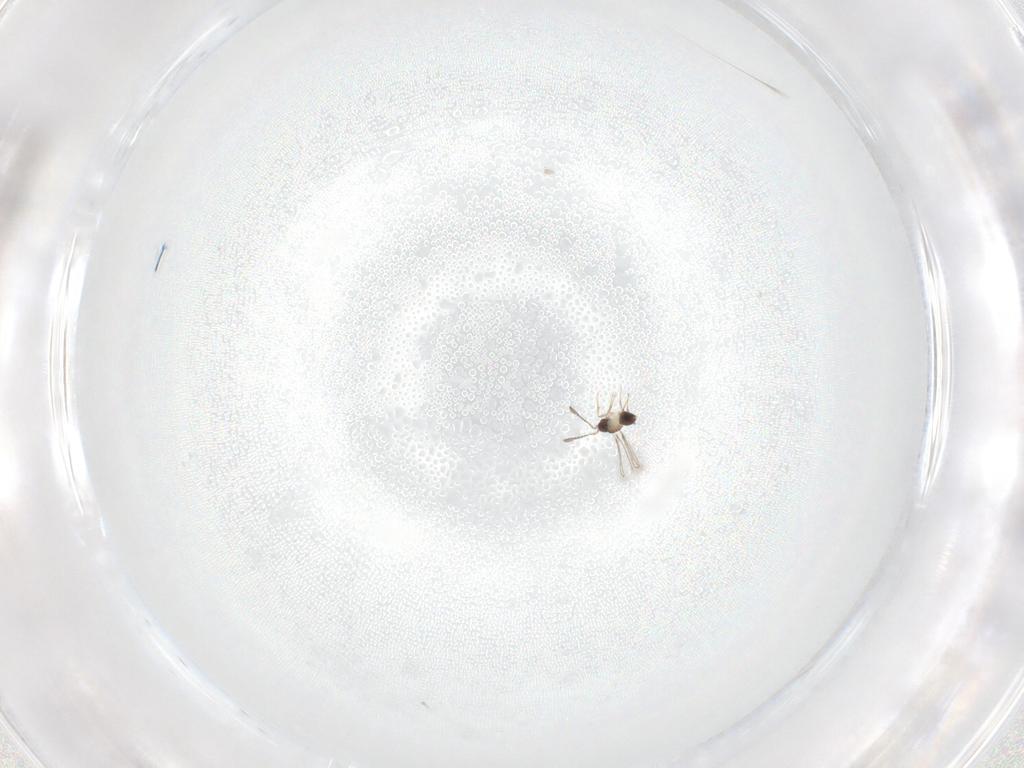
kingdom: Animalia
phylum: Arthropoda
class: Insecta
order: Hymenoptera
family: Mymaridae
